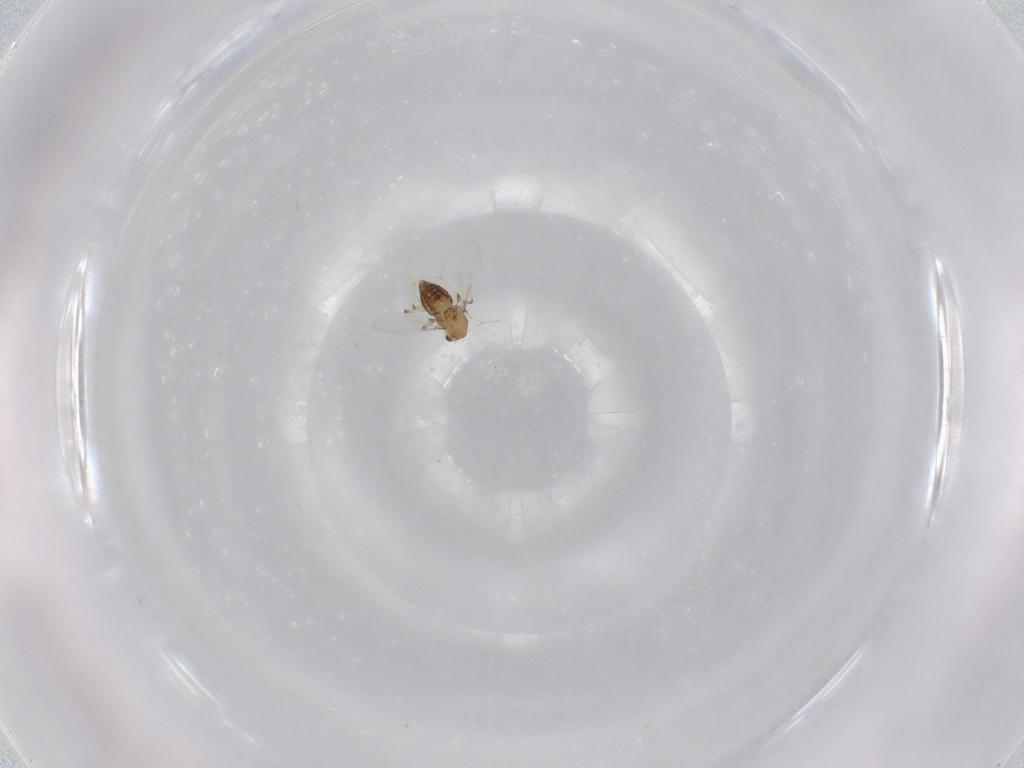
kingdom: Animalia
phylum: Arthropoda
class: Insecta
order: Diptera
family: Chironomidae
